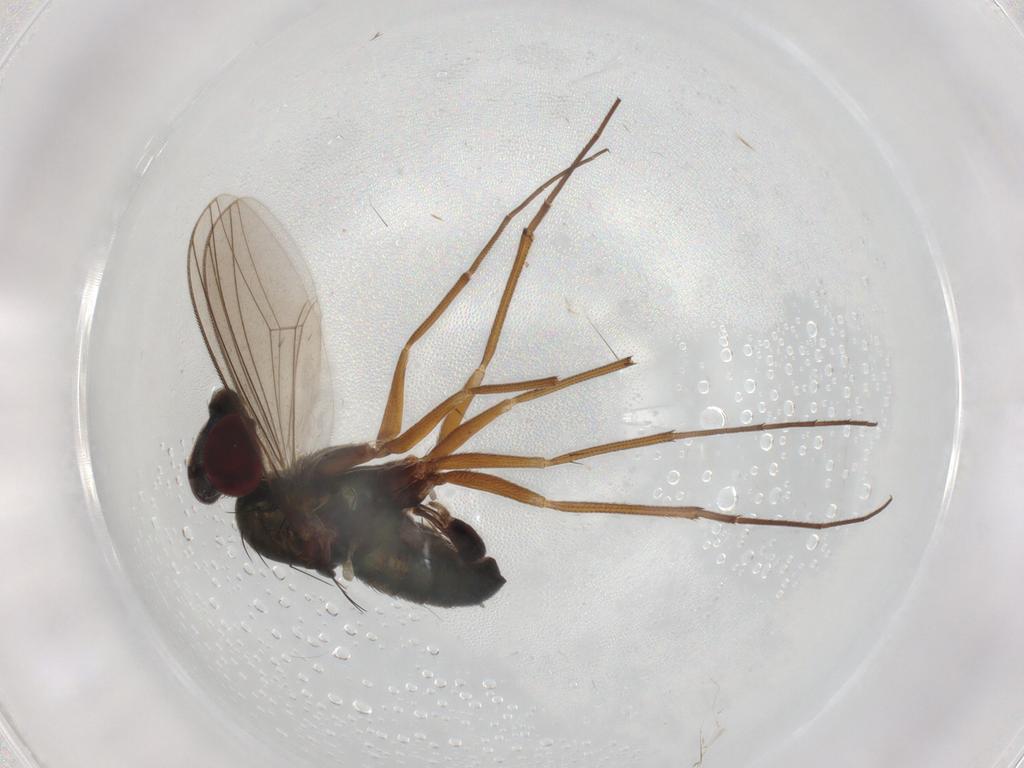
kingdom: Animalia
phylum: Arthropoda
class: Insecta
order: Diptera
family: Dolichopodidae
